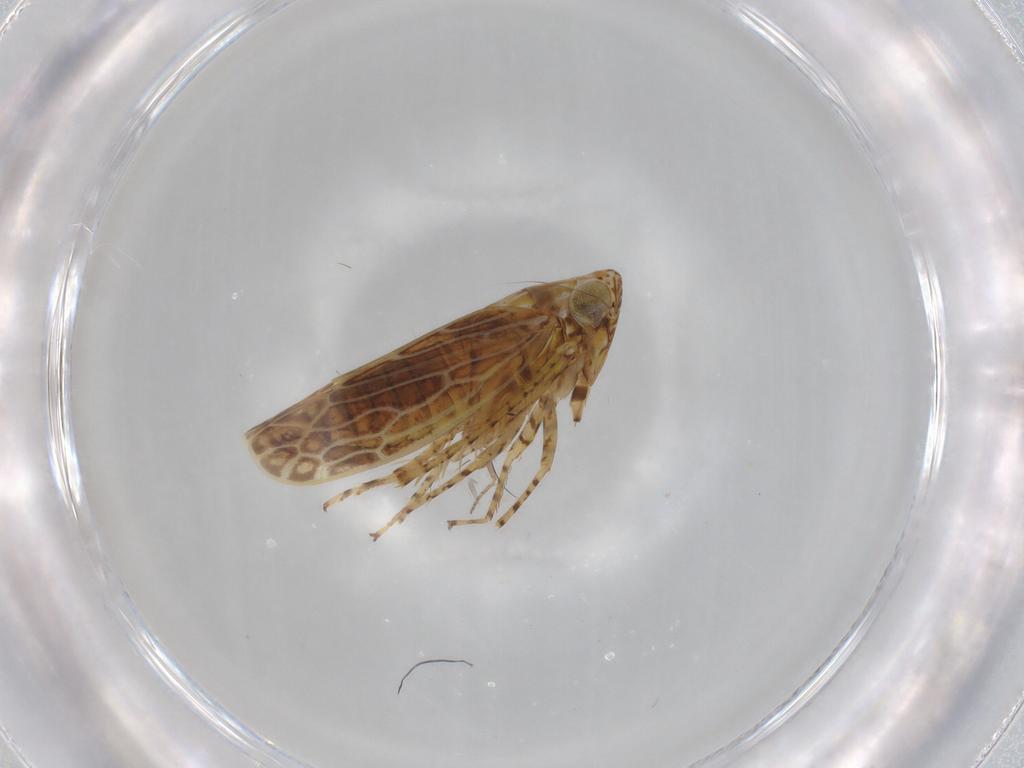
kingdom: Animalia
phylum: Arthropoda
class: Insecta
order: Hemiptera
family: Cicadellidae
